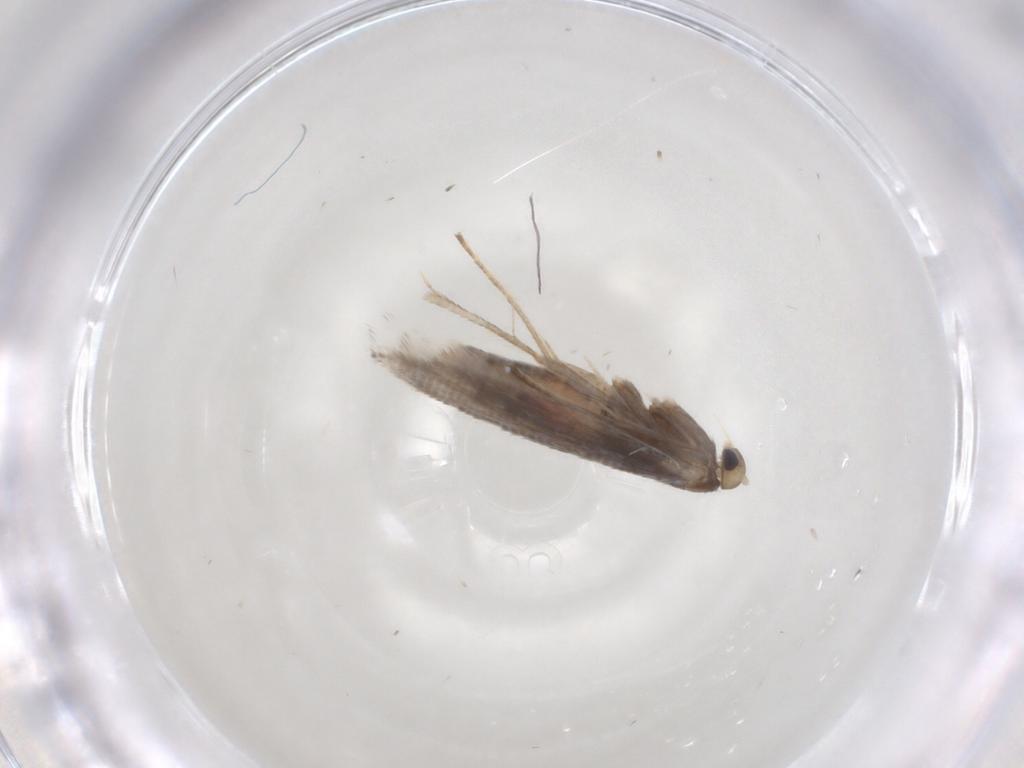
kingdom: Animalia
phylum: Arthropoda
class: Insecta
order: Lepidoptera
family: Gracillariidae
